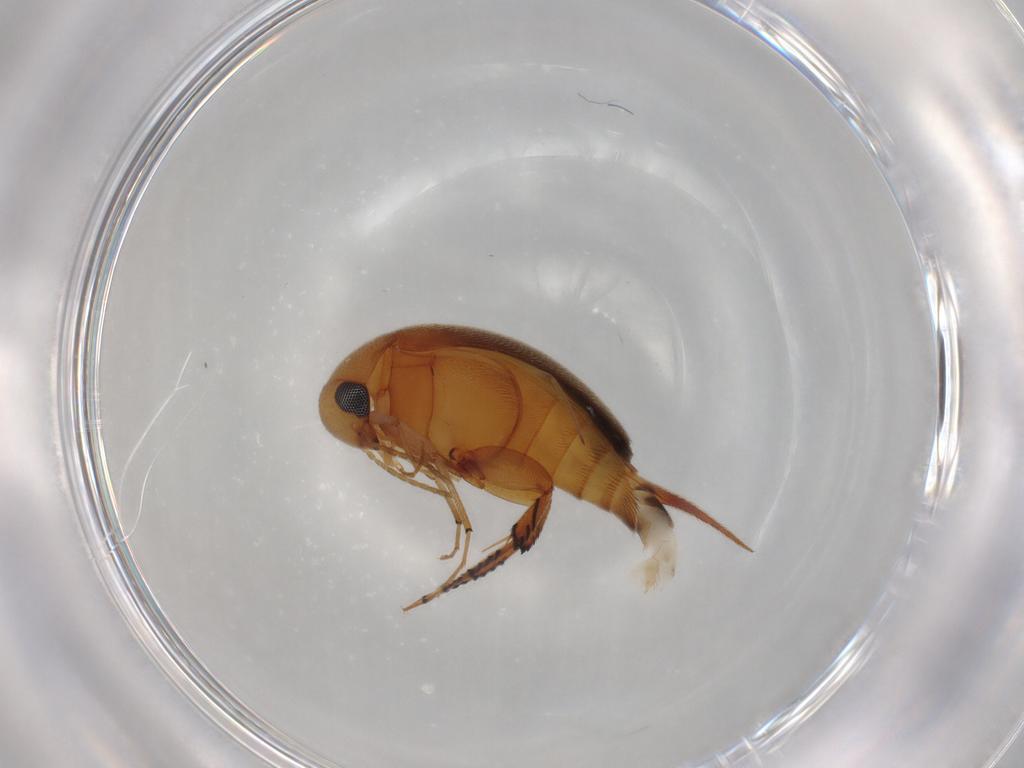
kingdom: Animalia
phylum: Arthropoda
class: Insecta
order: Coleoptera
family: Mordellidae
